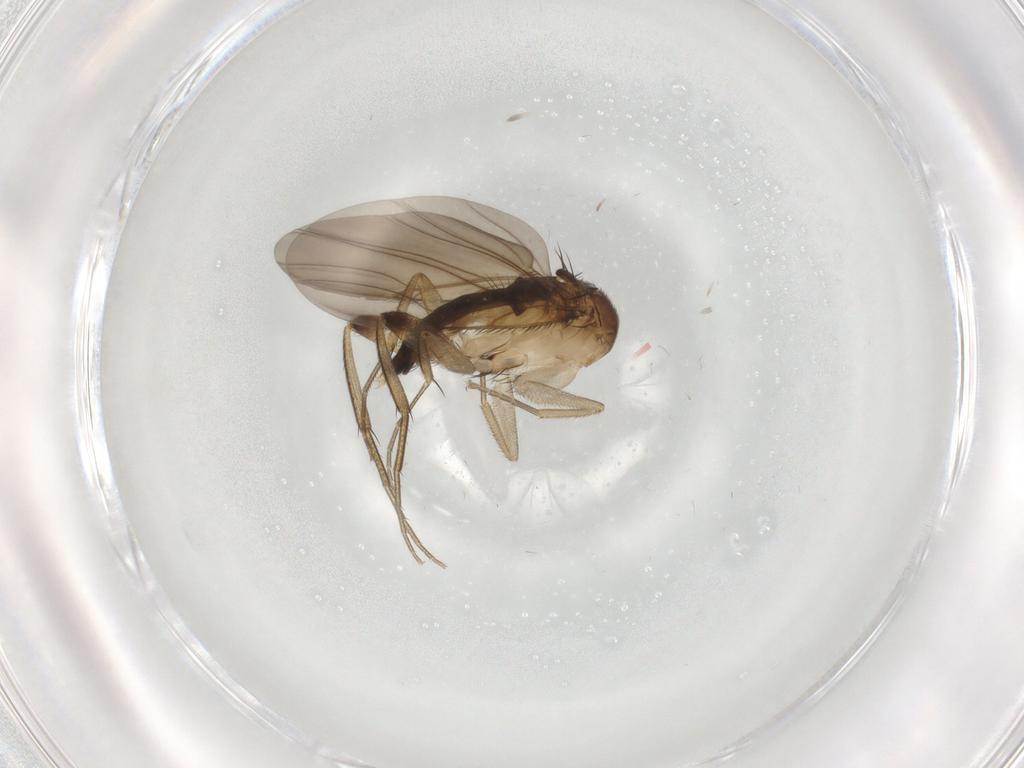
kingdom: Animalia
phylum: Arthropoda
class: Insecta
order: Diptera
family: Phoridae
